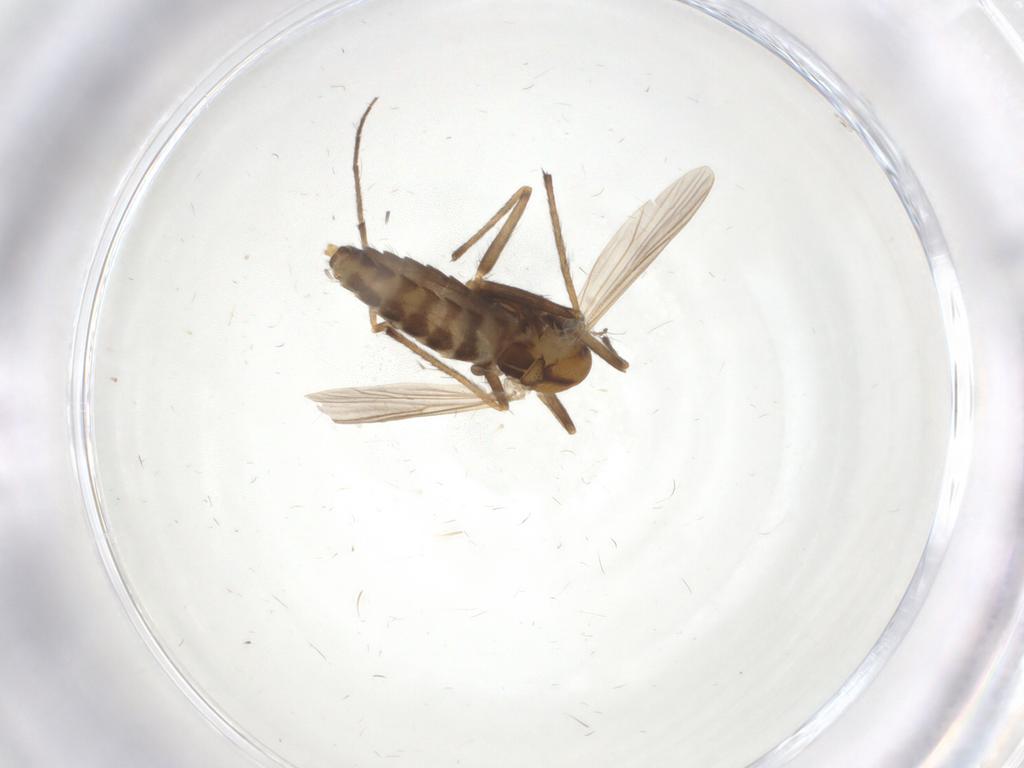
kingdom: Animalia
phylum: Arthropoda
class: Insecta
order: Diptera
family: Chironomidae
